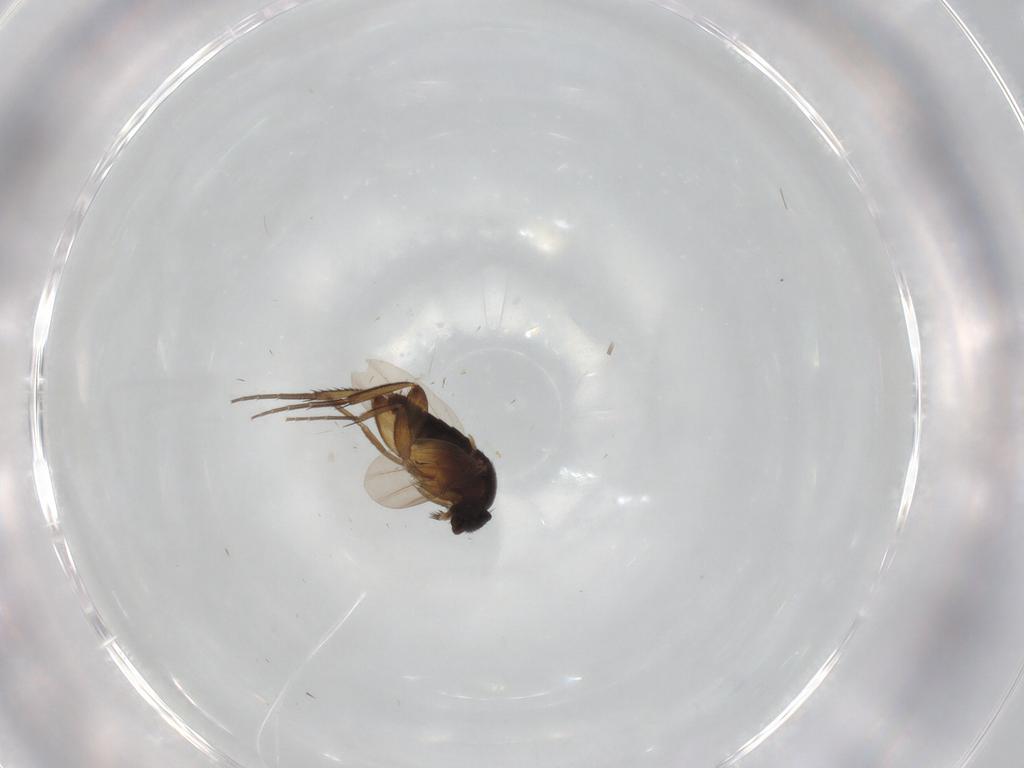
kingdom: Animalia
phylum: Arthropoda
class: Insecta
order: Diptera
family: Phoridae
